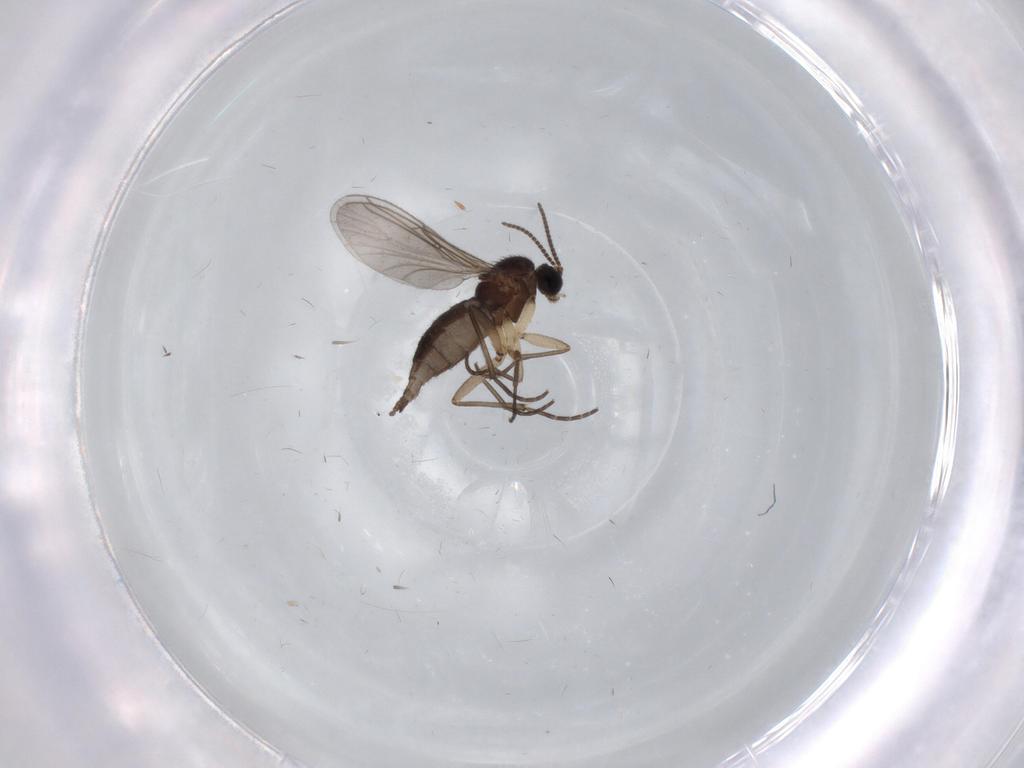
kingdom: Animalia
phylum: Arthropoda
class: Insecta
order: Diptera
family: Sciaridae
